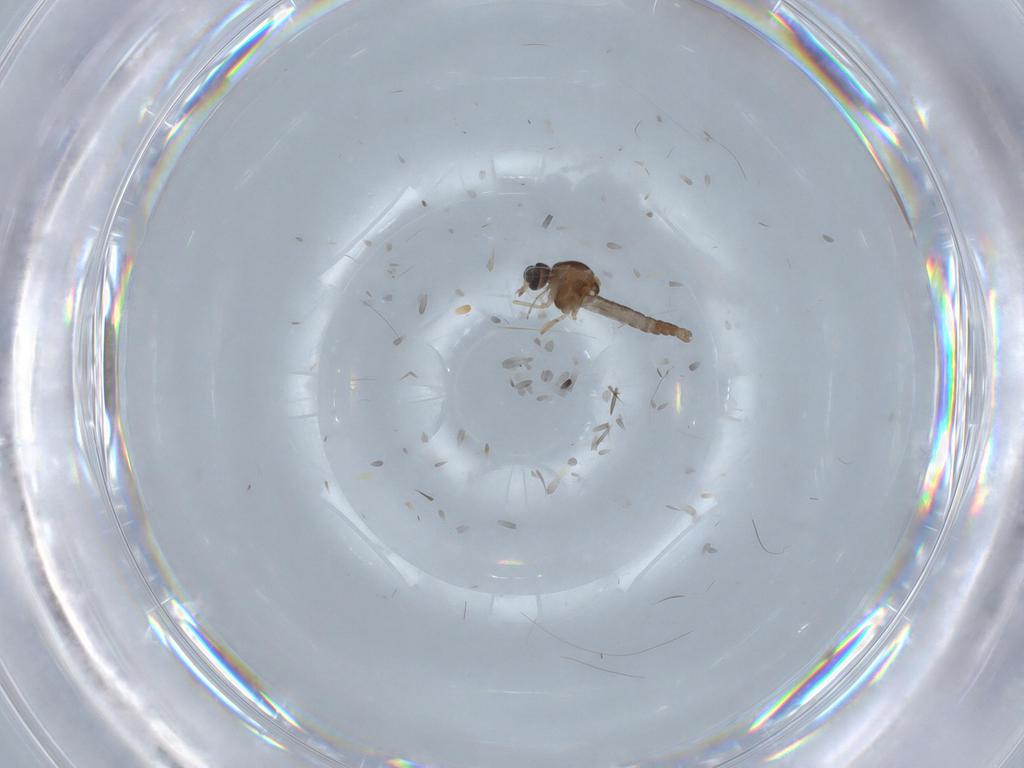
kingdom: Animalia
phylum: Arthropoda
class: Insecta
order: Diptera
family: Ceratopogonidae
